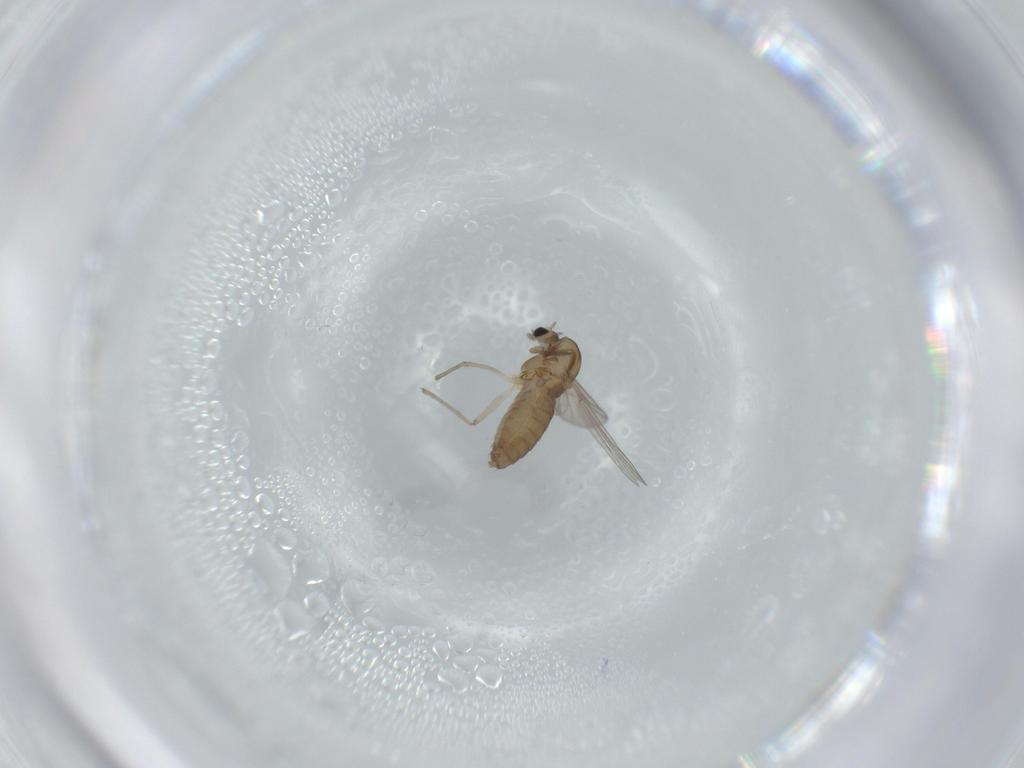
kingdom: Animalia
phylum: Arthropoda
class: Insecta
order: Diptera
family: Chironomidae
